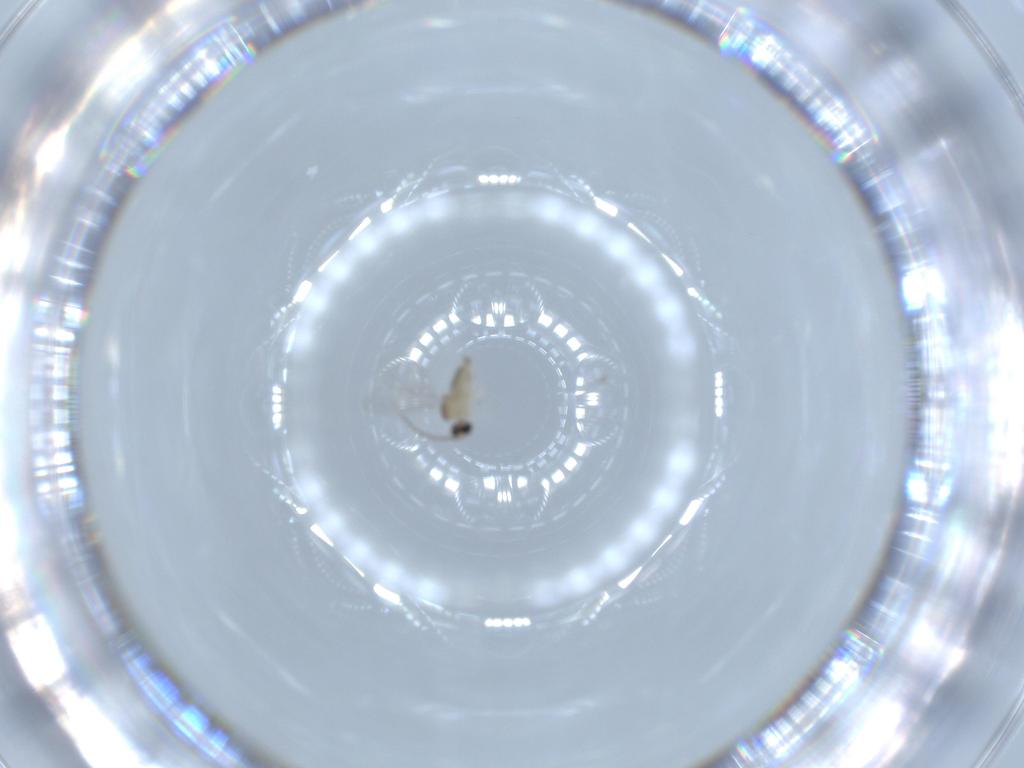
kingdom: Animalia
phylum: Arthropoda
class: Insecta
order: Diptera
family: Cecidomyiidae
